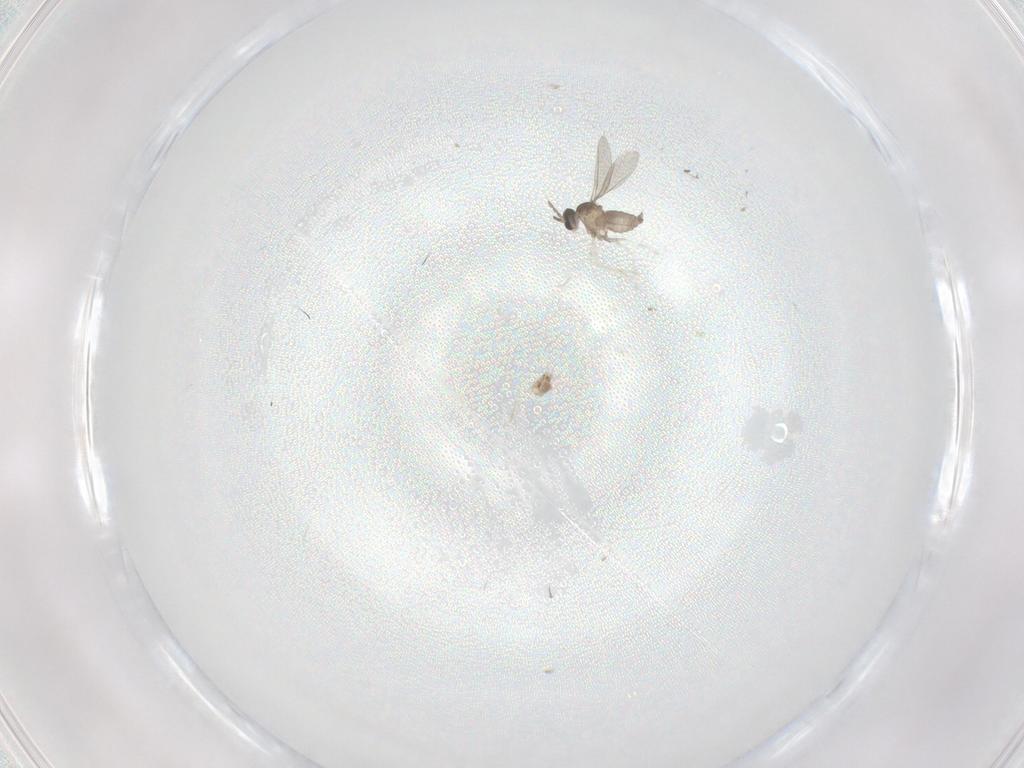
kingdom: Animalia
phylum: Arthropoda
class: Insecta
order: Diptera
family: Cecidomyiidae
